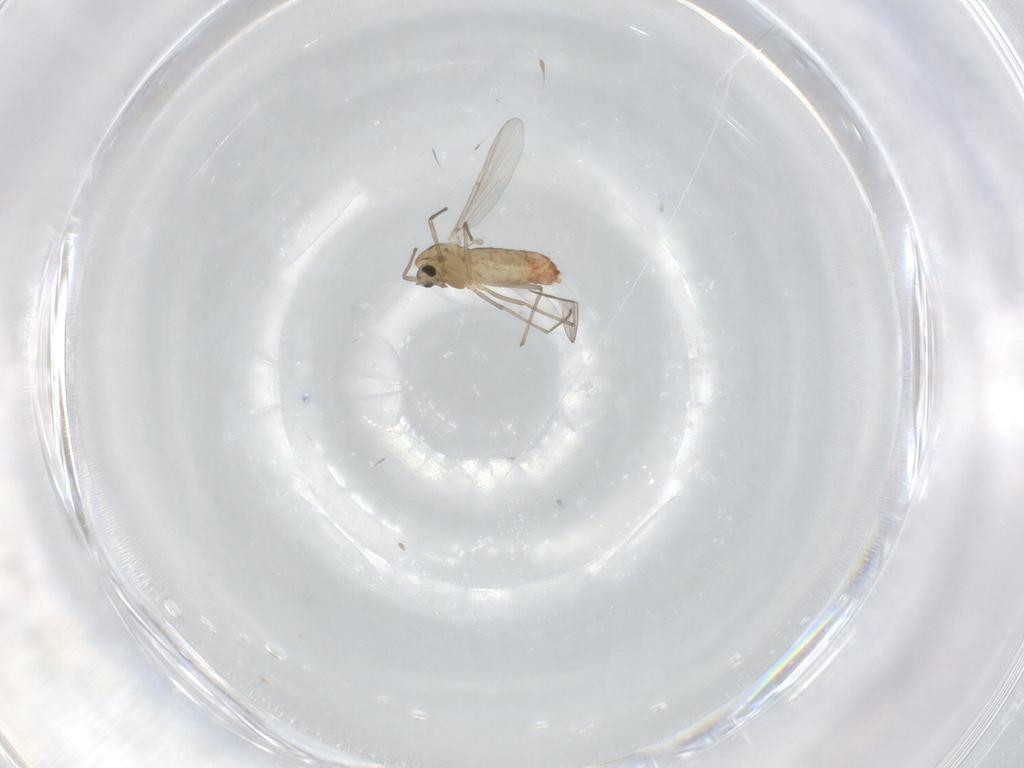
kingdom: Animalia
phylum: Arthropoda
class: Insecta
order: Diptera
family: Chironomidae
